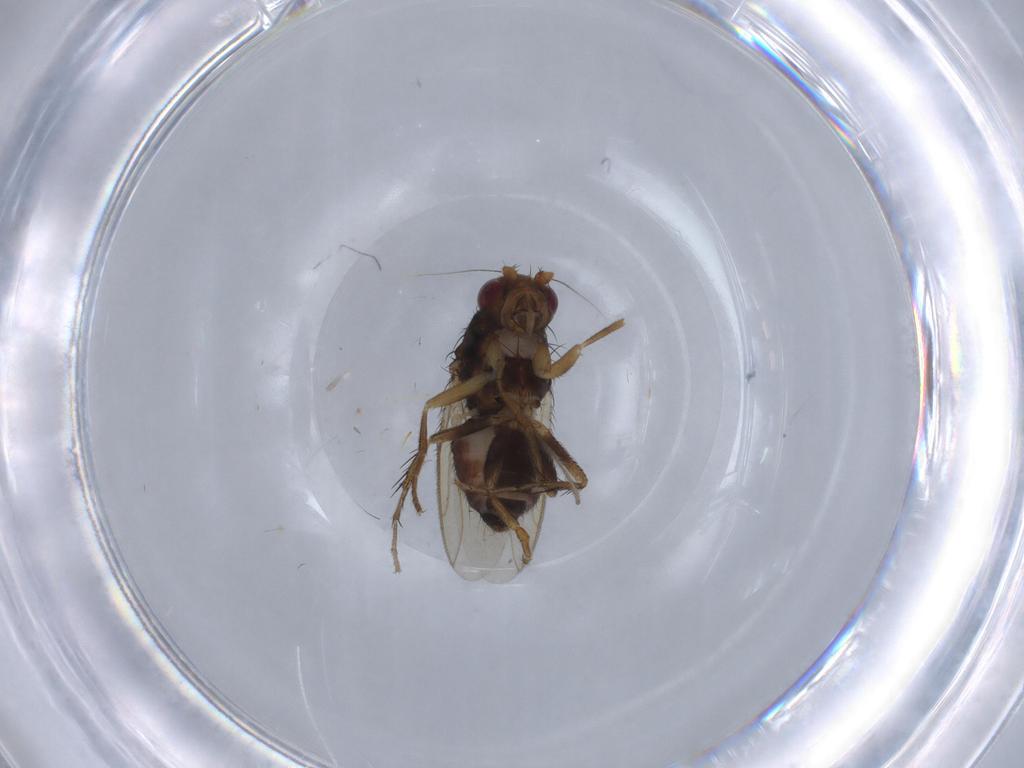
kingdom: Animalia
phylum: Arthropoda
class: Insecta
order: Diptera
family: Sphaeroceridae
